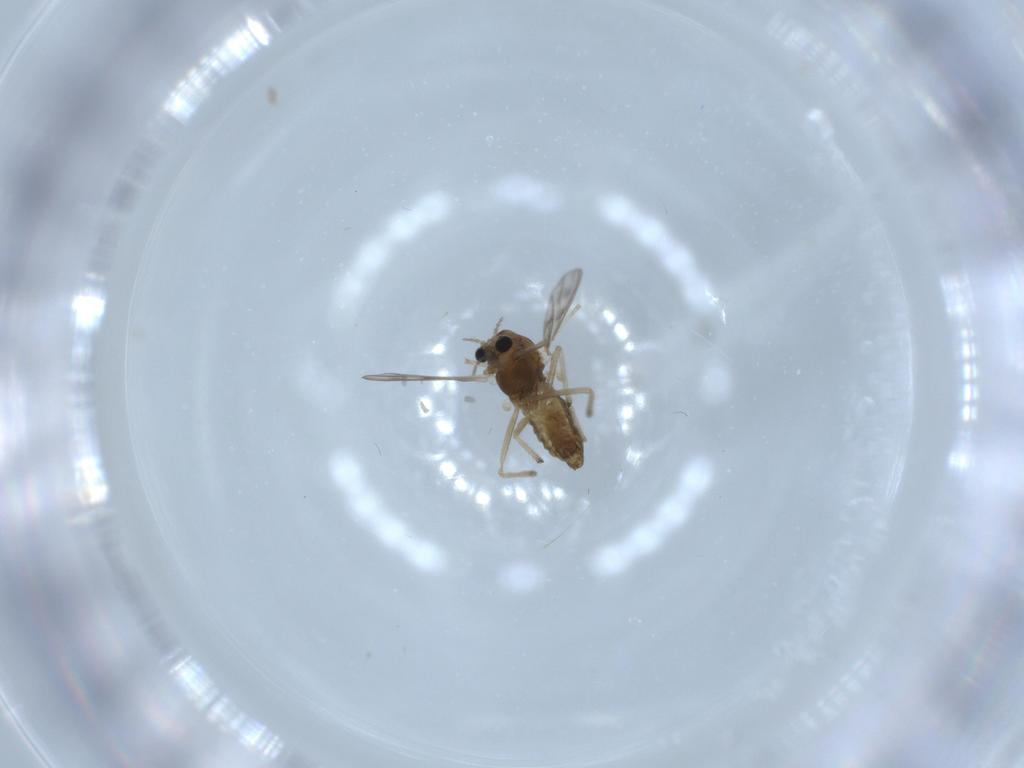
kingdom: Animalia
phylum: Arthropoda
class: Insecta
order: Diptera
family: Chironomidae
